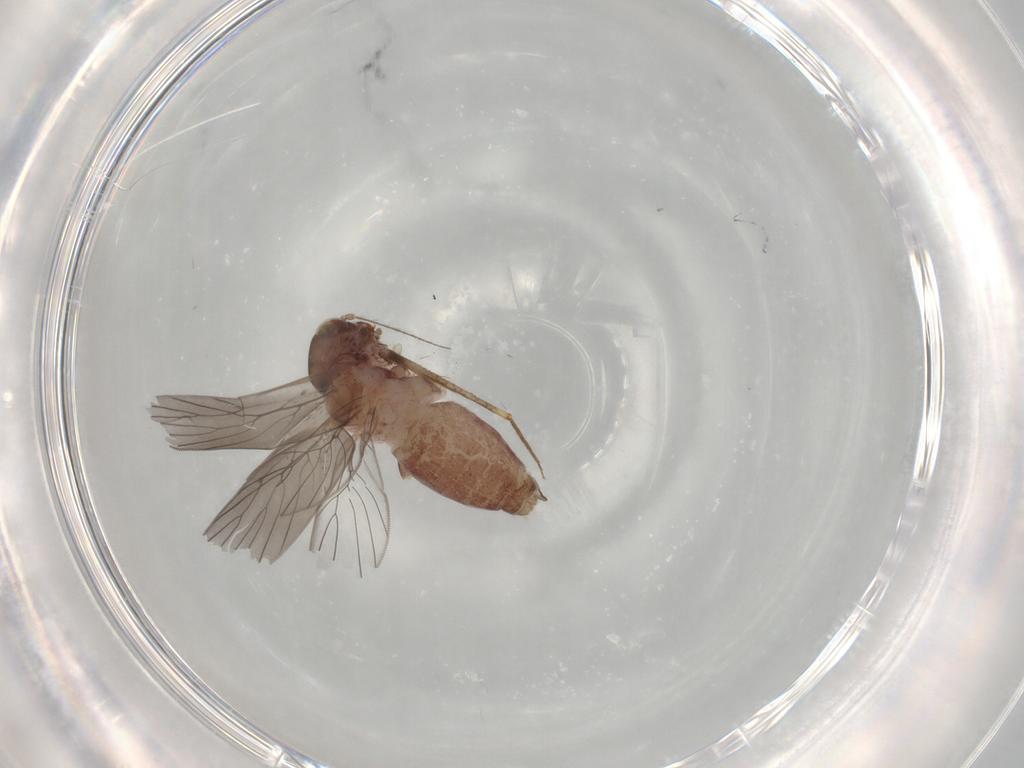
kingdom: Animalia
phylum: Arthropoda
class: Insecta
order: Psocodea
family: Lepidopsocidae
